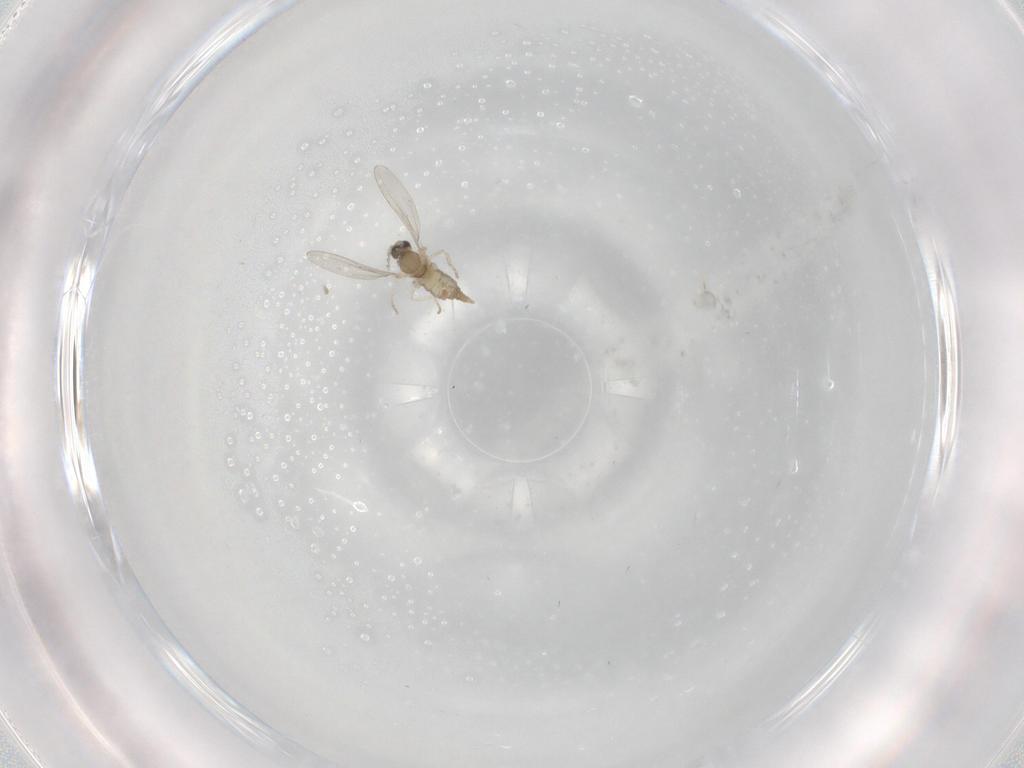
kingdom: Animalia
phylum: Arthropoda
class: Insecta
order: Diptera
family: Cecidomyiidae
